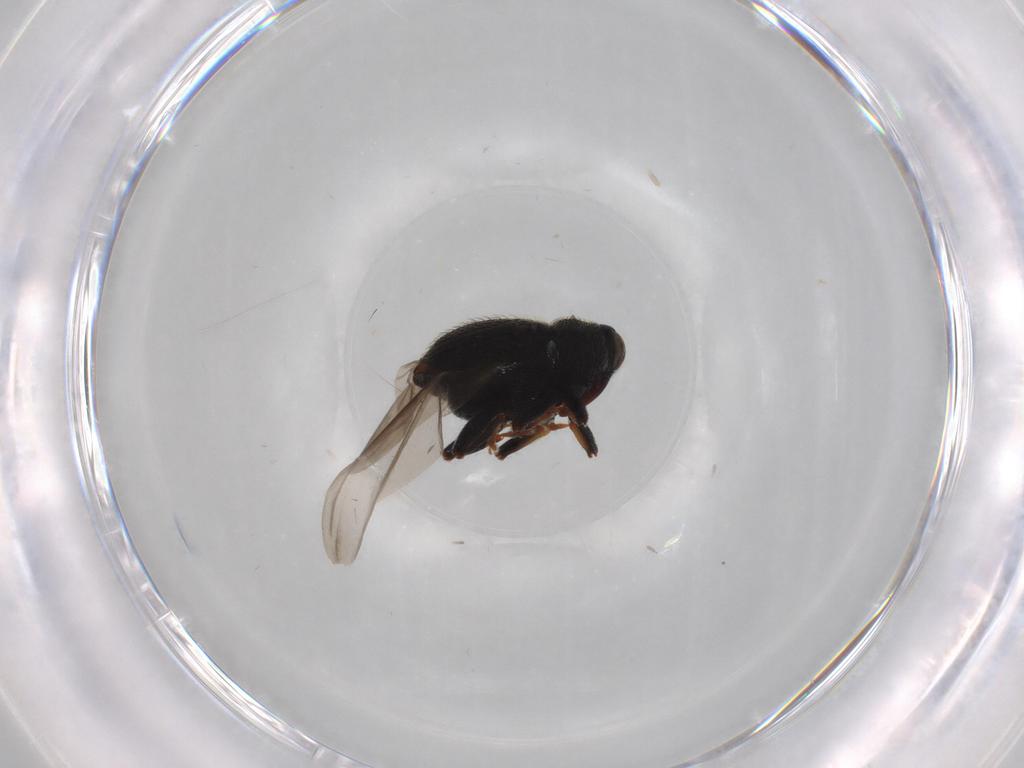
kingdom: Animalia
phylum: Arthropoda
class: Insecta
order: Coleoptera
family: Curculionidae
